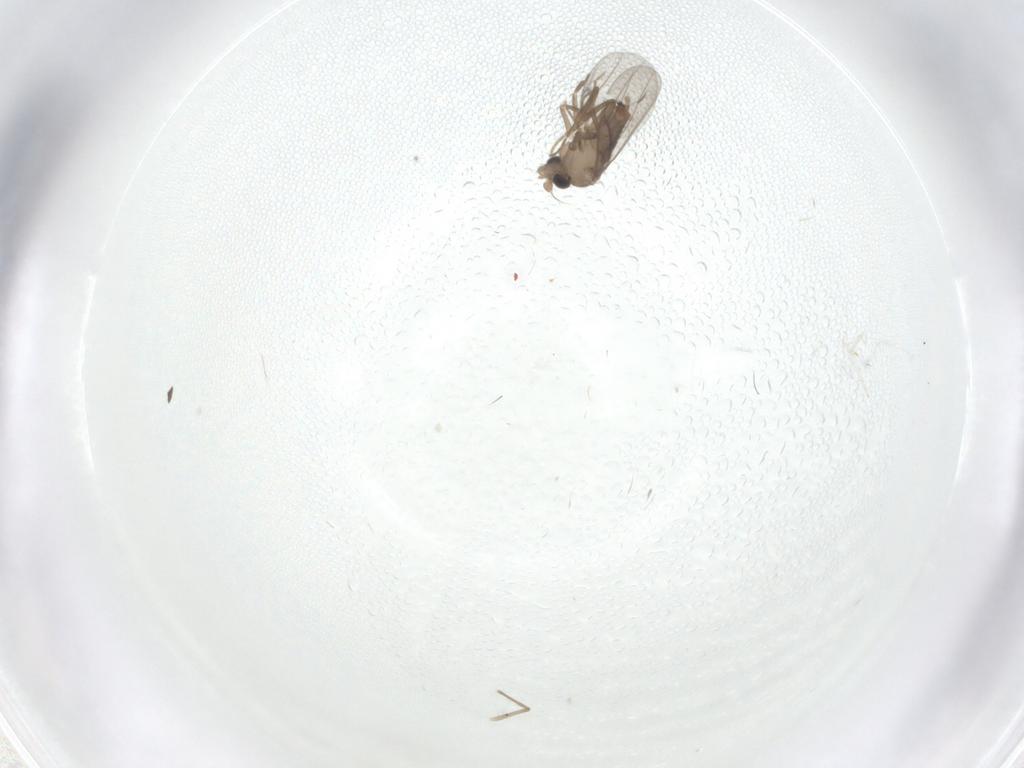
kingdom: Animalia
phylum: Arthropoda
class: Insecta
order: Diptera
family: Chironomidae
